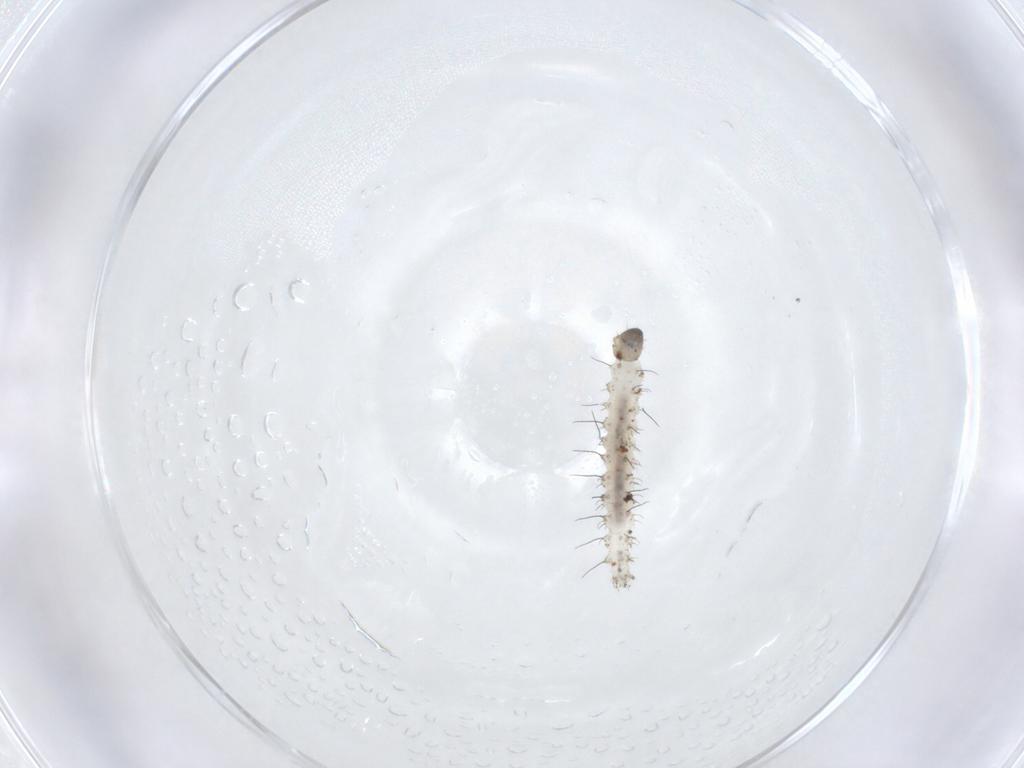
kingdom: Animalia
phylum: Arthropoda
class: Insecta
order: Diptera
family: Ceratopogonidae
